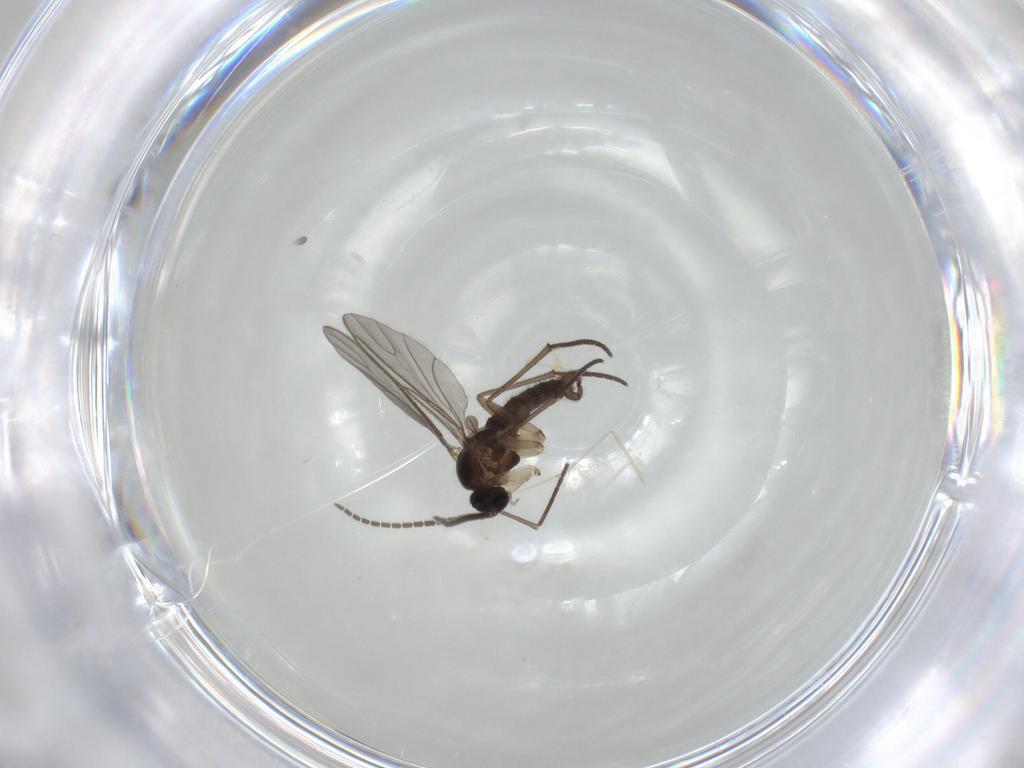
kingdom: Animalia
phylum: Arthropoda
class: Insecta
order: Diptera
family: Sciaridae
